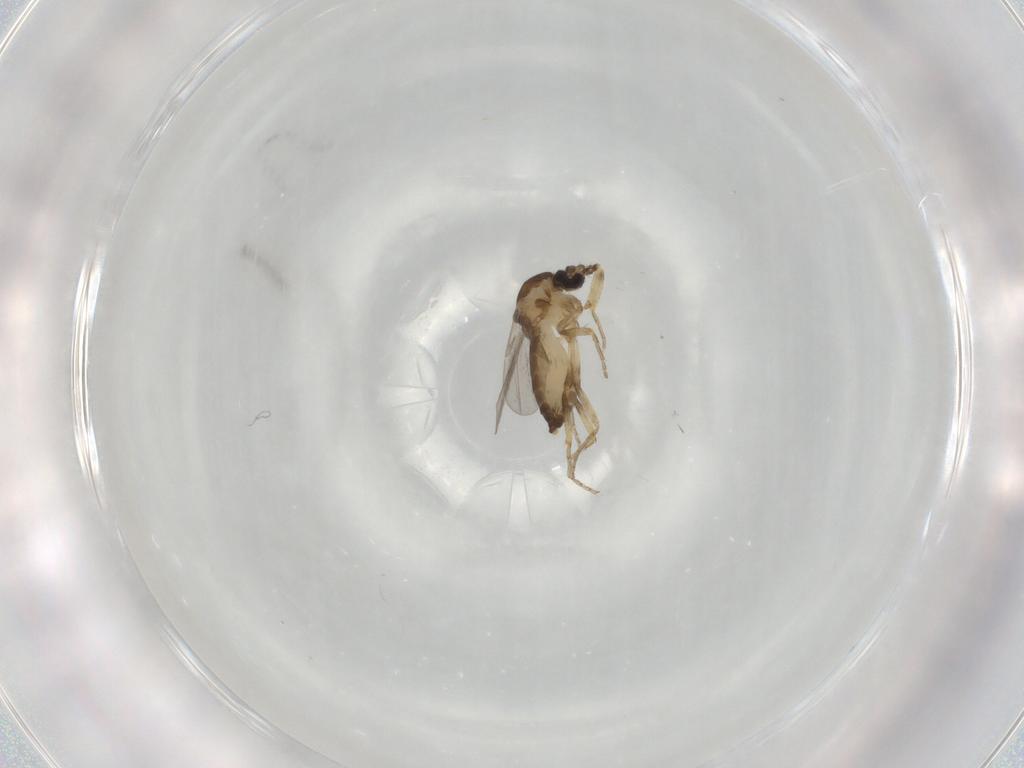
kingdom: Animalia
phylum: Arthropoda
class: Insecta
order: Diptera
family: Ceratopogonidae
